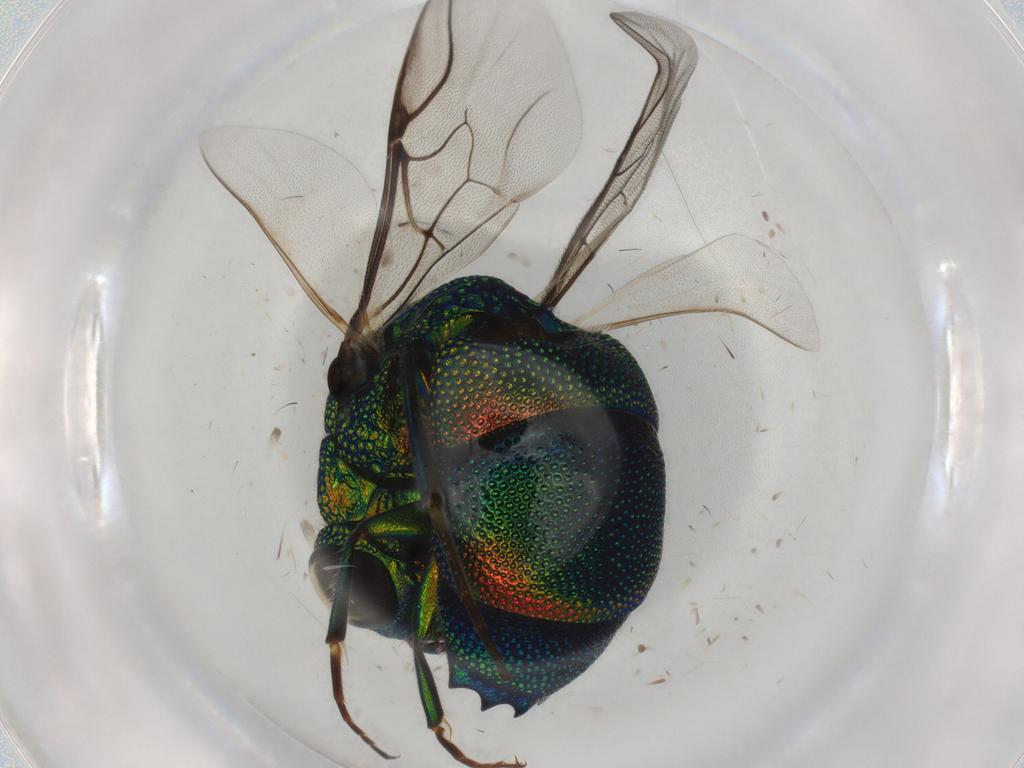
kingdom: Animalia
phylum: Arthropoda
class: Insecta
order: Hymenoptera
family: Chrysididae
